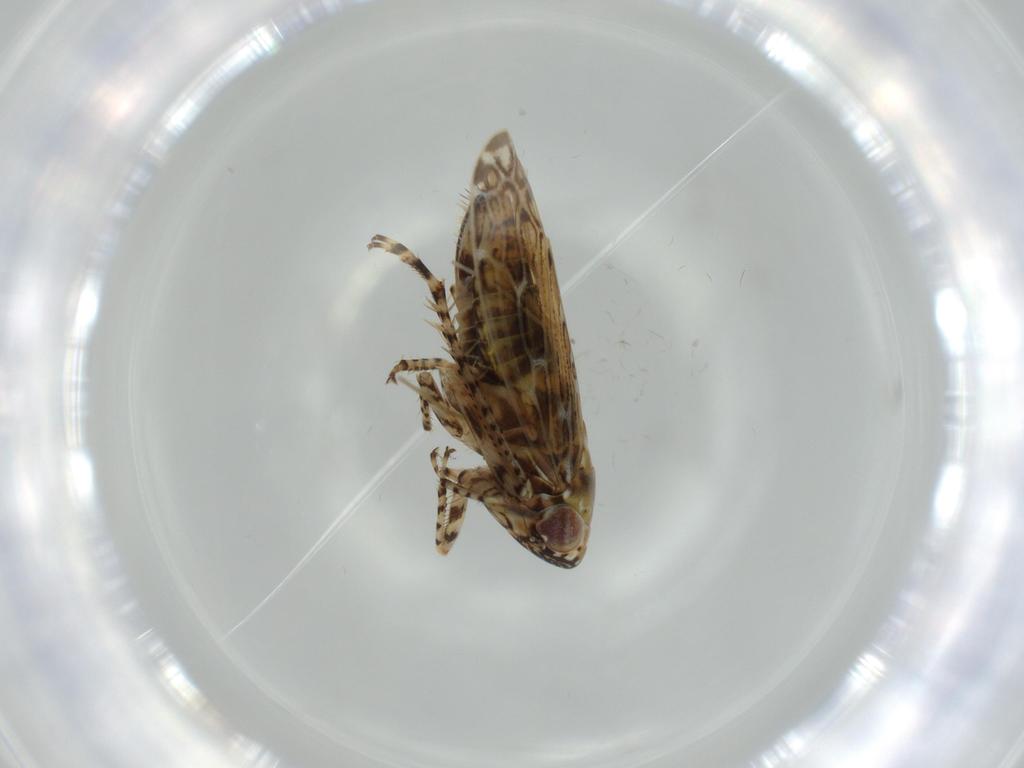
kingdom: Animalia
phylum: Arthropoda
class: Insecta
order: Diptera
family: Ephydridae
